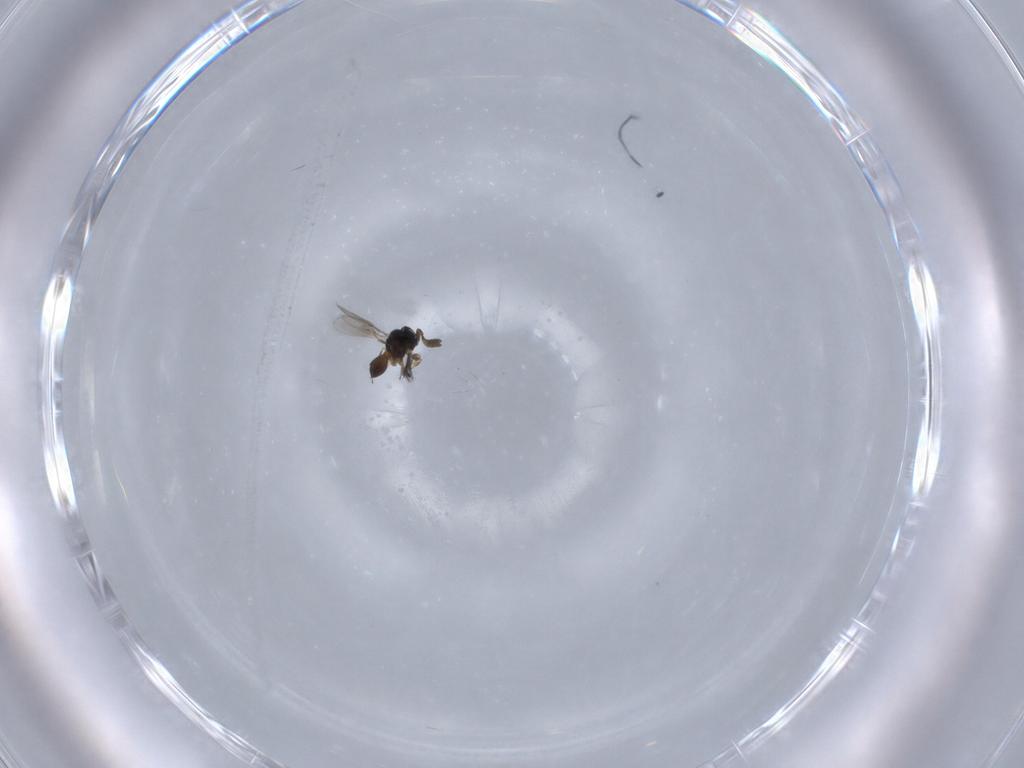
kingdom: Animalia
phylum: Arthropoda
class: Insecta
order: Hymenoptera
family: Scelionidae
